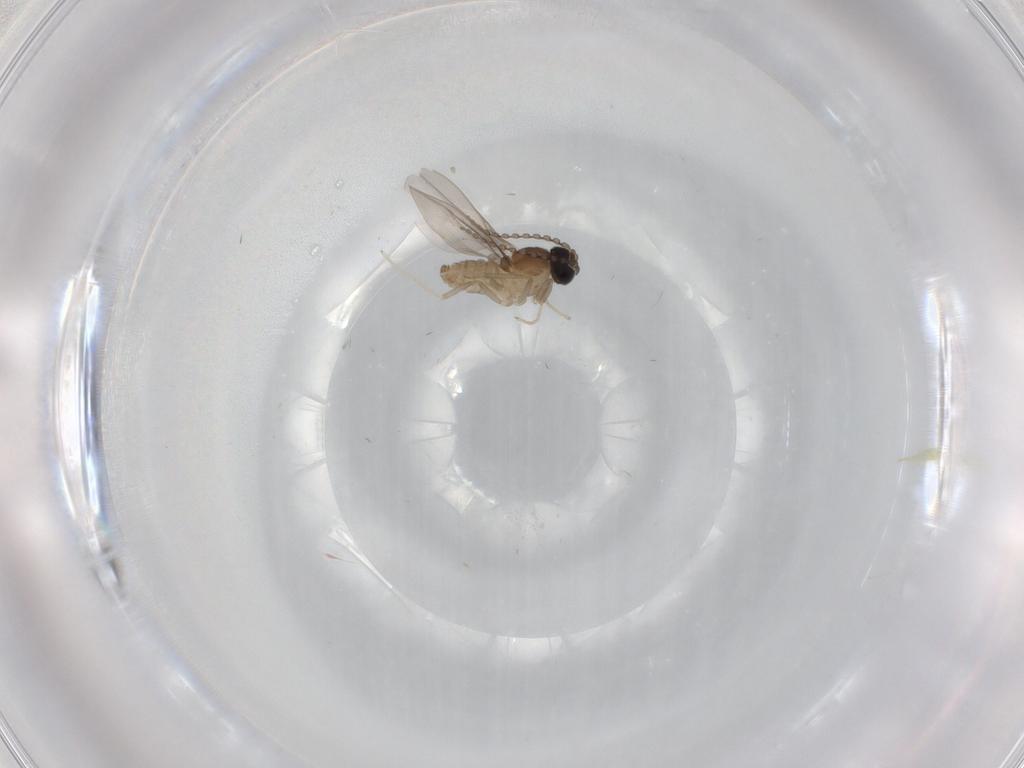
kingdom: Animalia
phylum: Arthropoda
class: Insecta
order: Diptera
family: Cecidomyiidae
